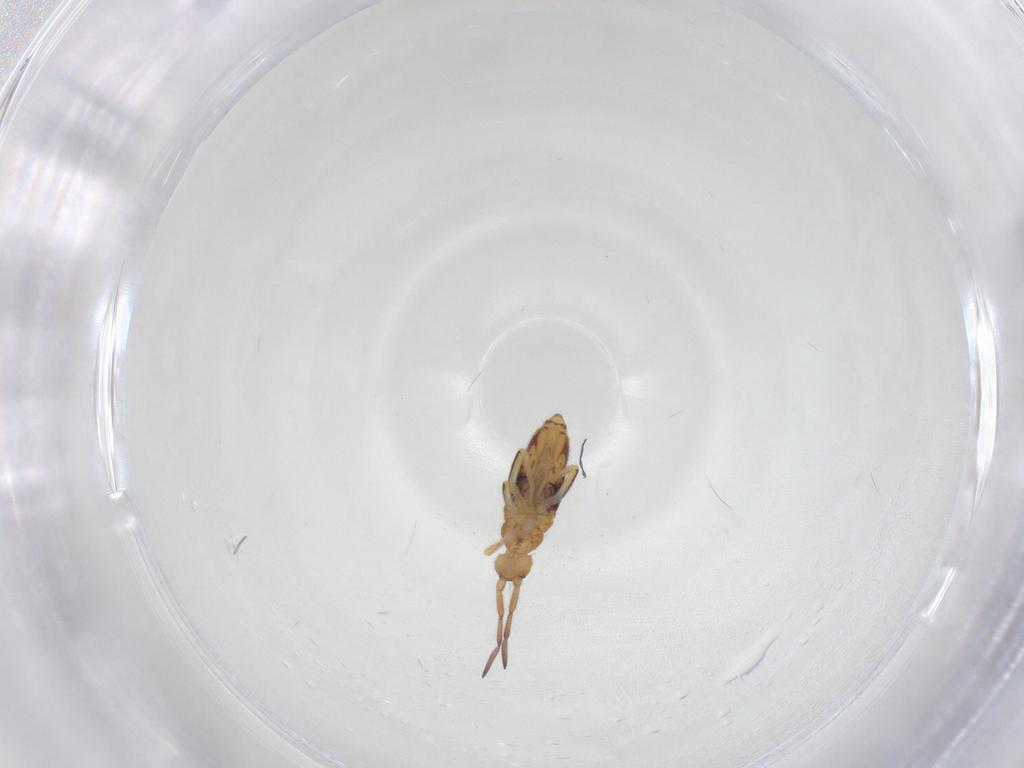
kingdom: Animalia
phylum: Arthropoda
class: Collembola
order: Entomobryomorpha
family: Entomobryidae
